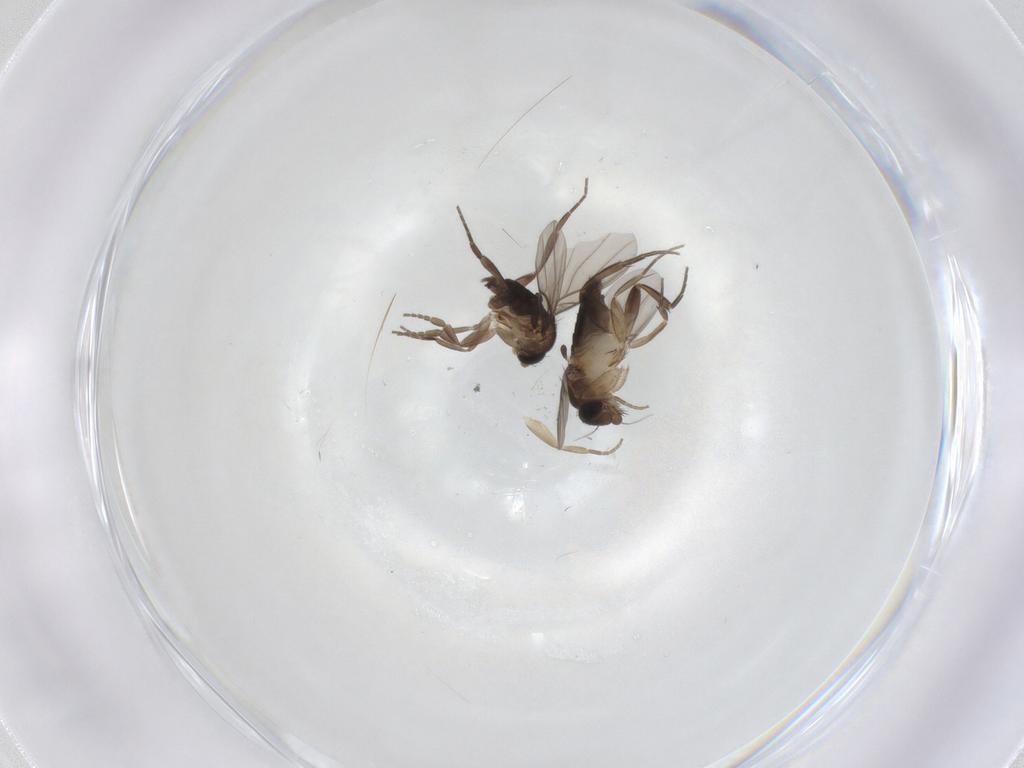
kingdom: Animalia
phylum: Arthropoda
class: Insecta
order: Diptera
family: Phoridae
